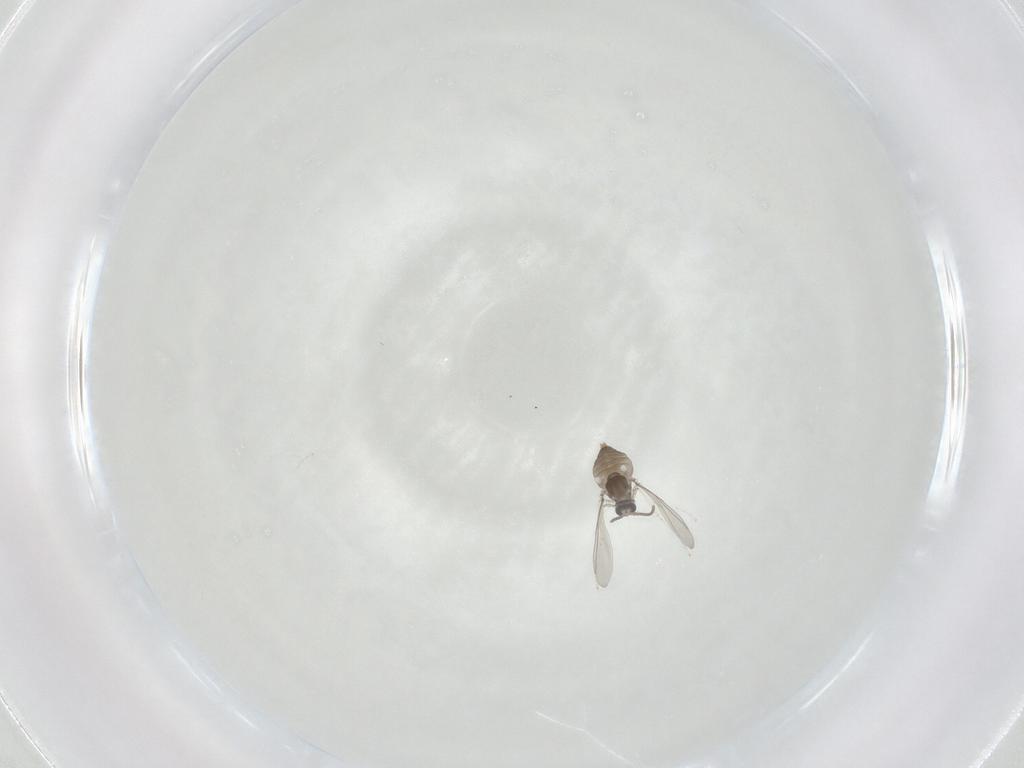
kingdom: Animalia
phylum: Arthropoda
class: Insecta
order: Diptera
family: Cecidomyiidae
